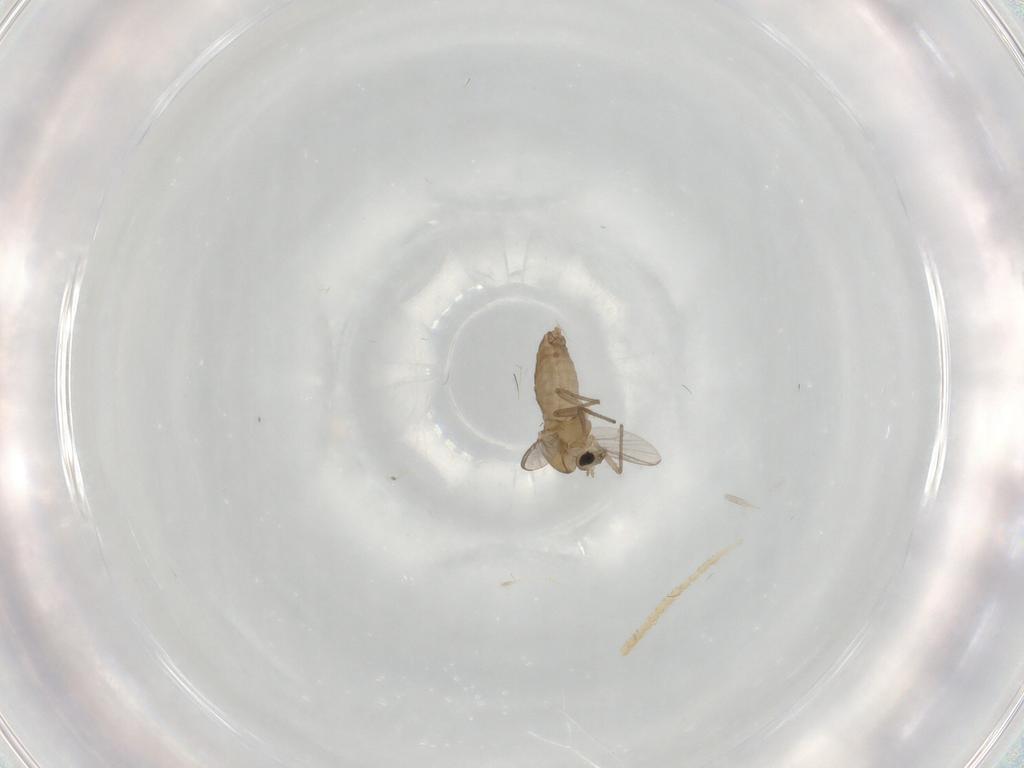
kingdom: Animalia
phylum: Arthropoda
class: Insecta
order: Diptera
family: Chironomidae
